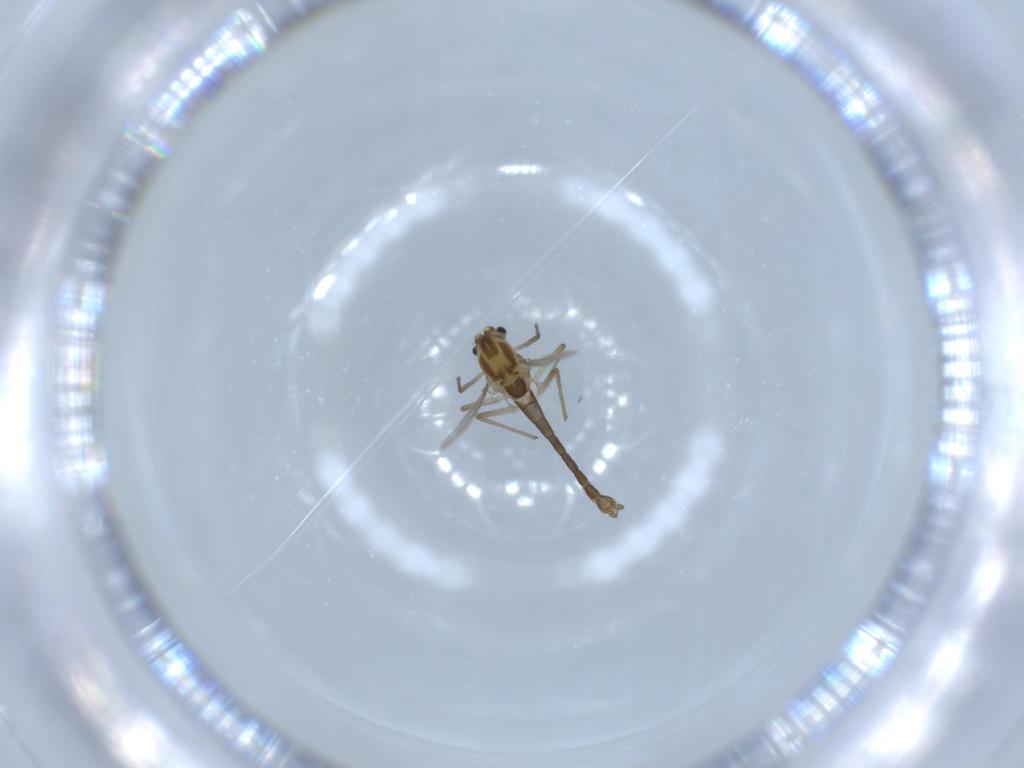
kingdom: Animalia
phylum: Arthropoda
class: Insecta
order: Diptera
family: Chironomidae
